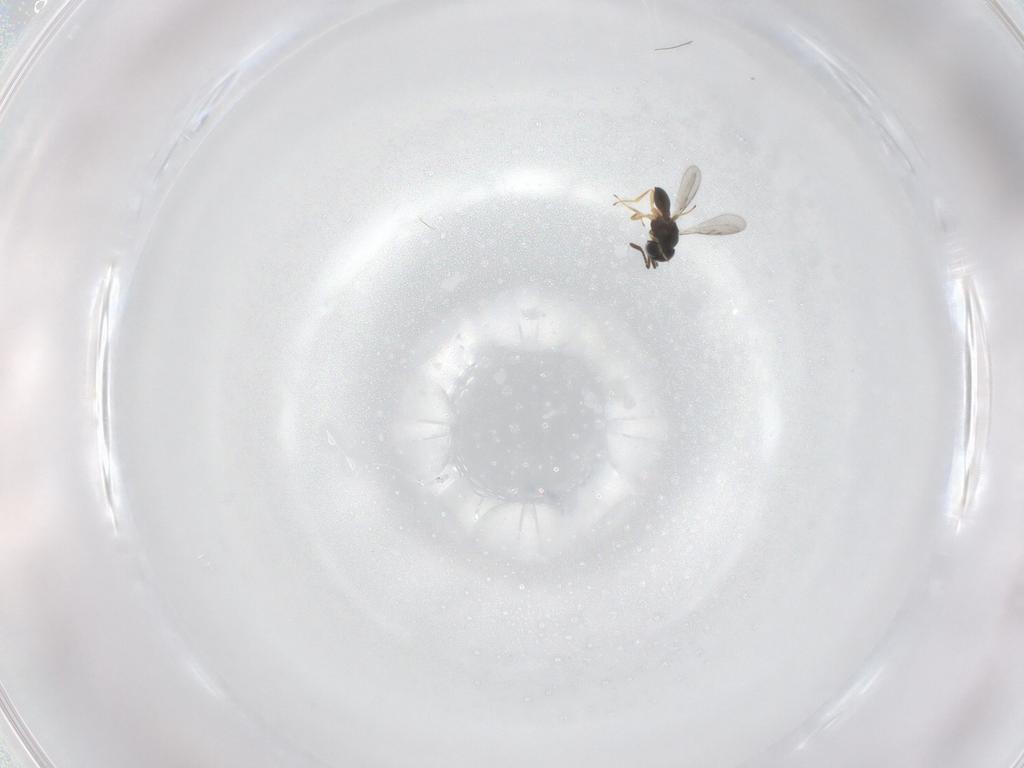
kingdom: Animalia
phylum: Arthropoda
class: Insecta
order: Hymenoptera
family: Mymaridae
